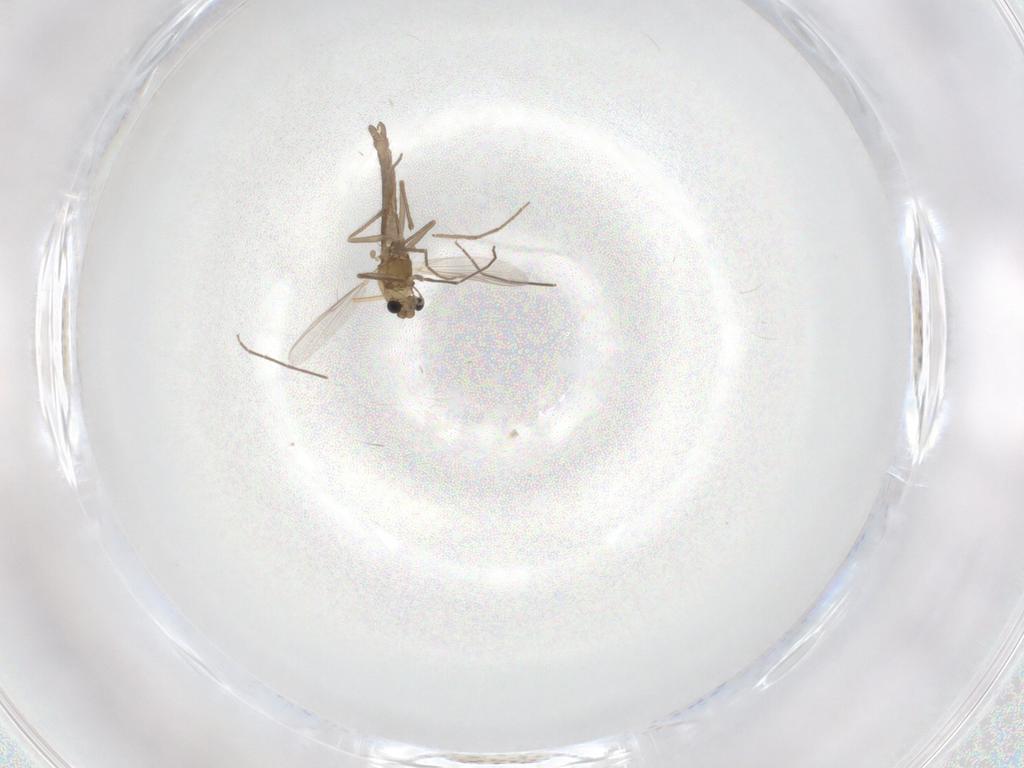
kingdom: Animalia
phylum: Arthropoda
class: Insecta
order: Diptera
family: Chironomidae
